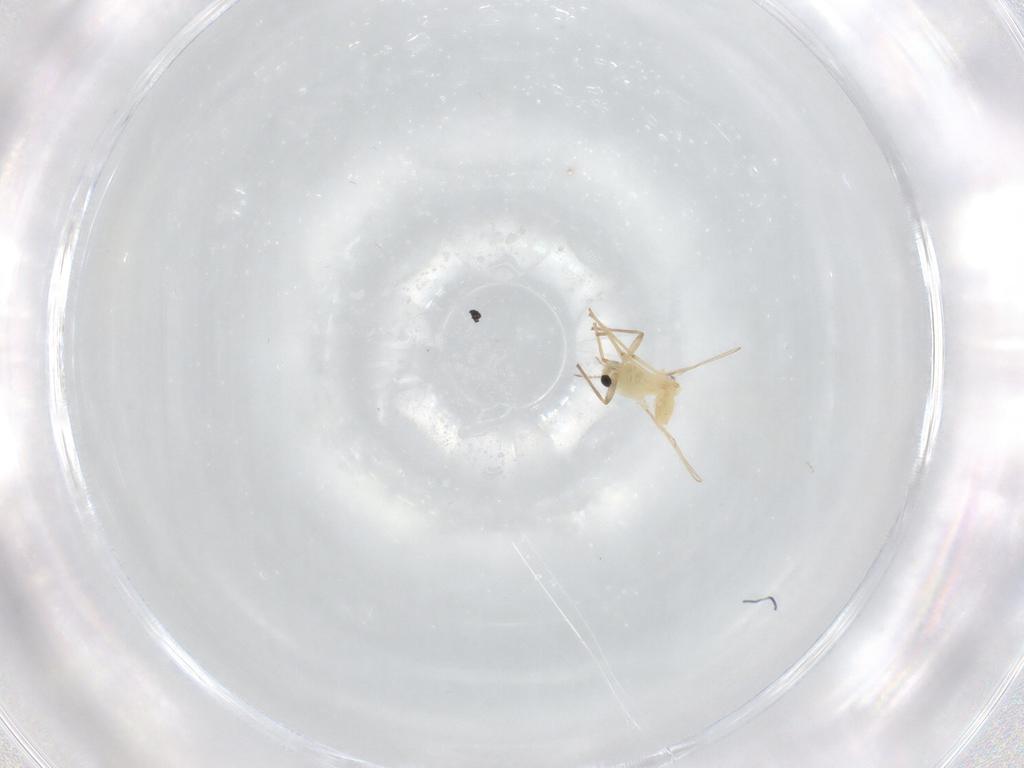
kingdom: Animalia
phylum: Arthropoda
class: Insecta
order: Diptera
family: Chironomidae
